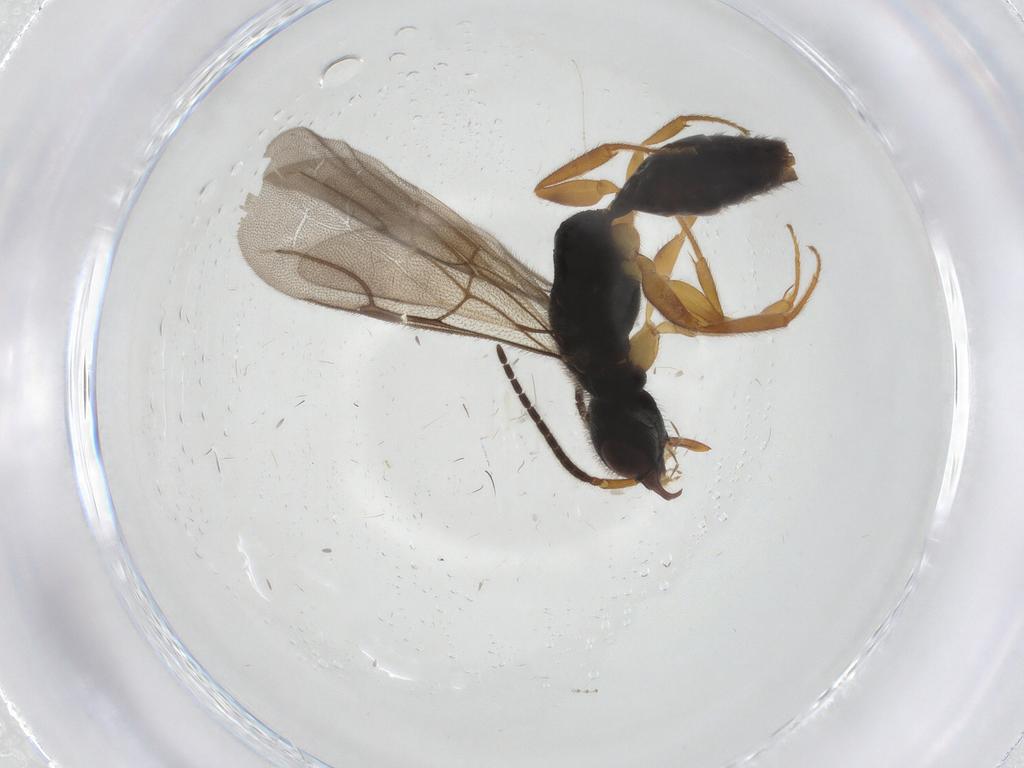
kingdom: Animalia
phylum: Arthropoda
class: Insecta
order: Hymenoptera
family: Bethylidae
